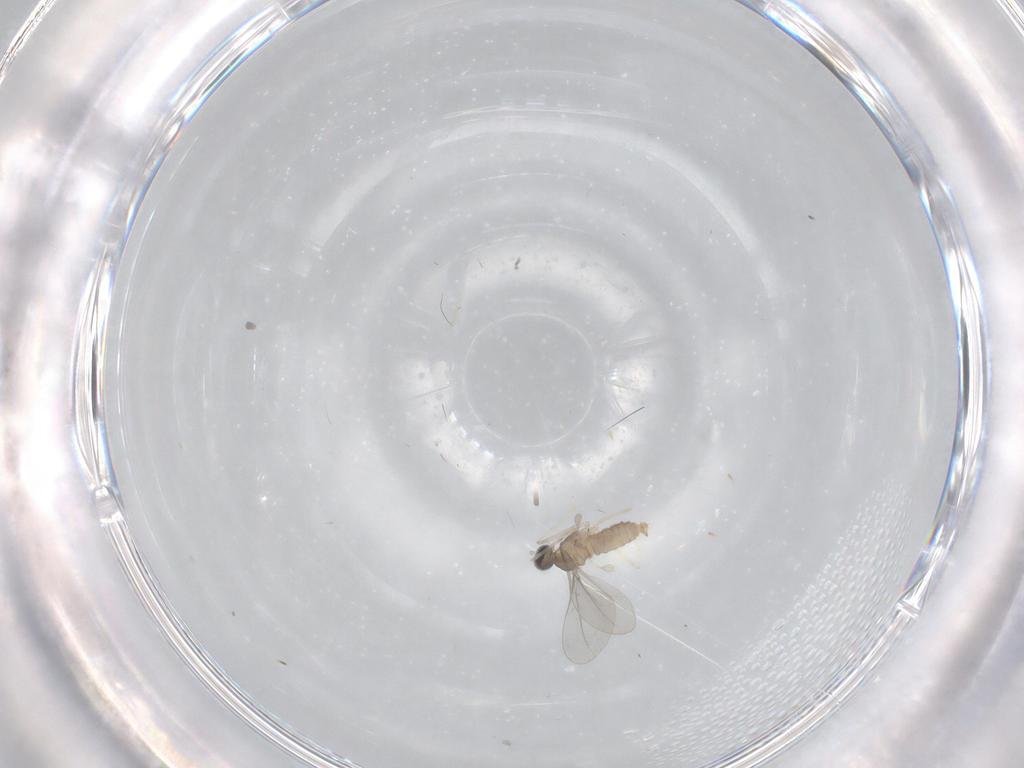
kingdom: Animalia
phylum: Arthropoda
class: Insecta
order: Diptera
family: Cecidomyiidae
